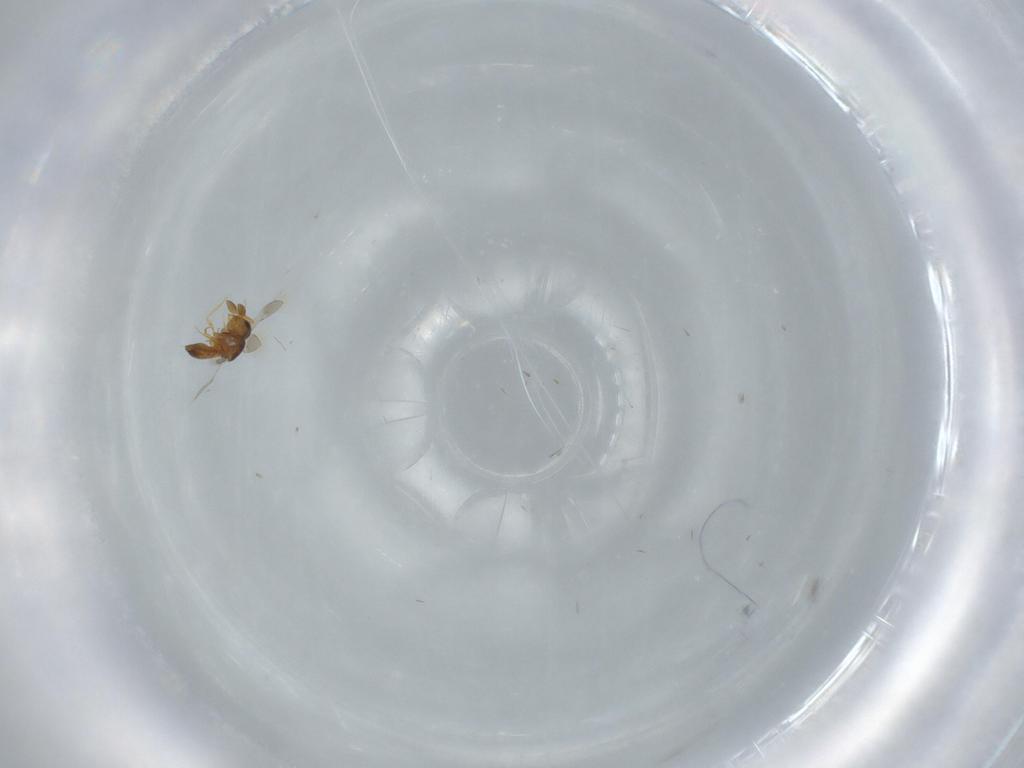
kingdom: Animalia
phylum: Arthropoda
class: Insecta
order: Hymenoptera
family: Scelionidae
